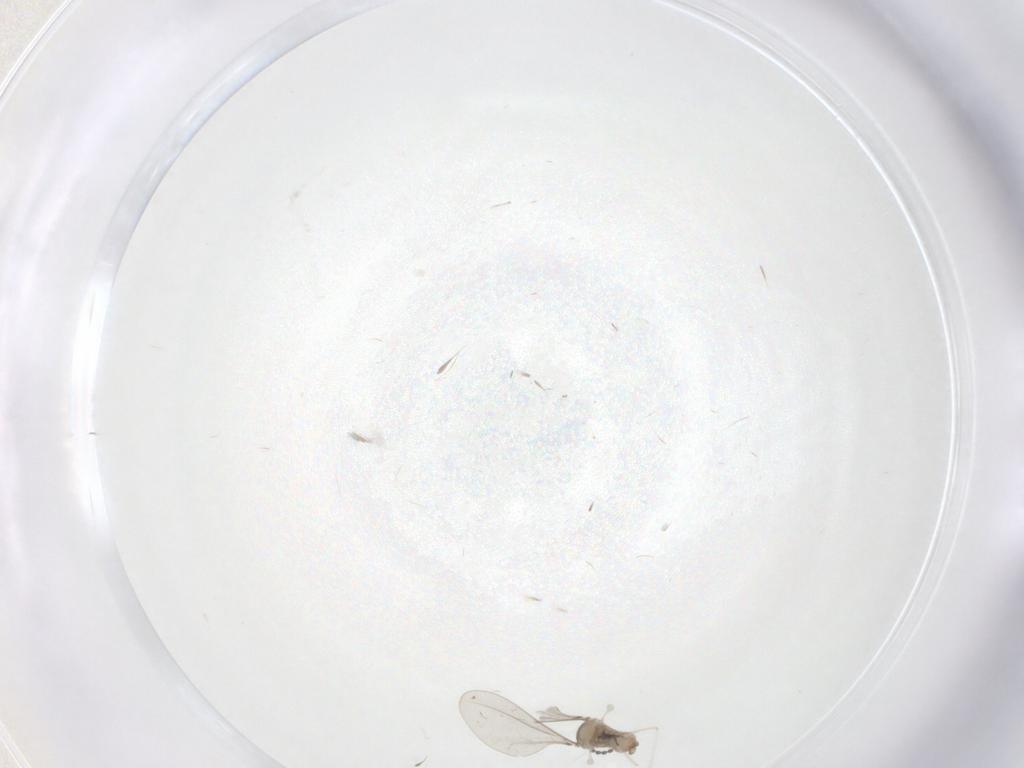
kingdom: Animalia
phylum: Arthropoda
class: Insecta
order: Diptera
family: Cecidomyiidae
